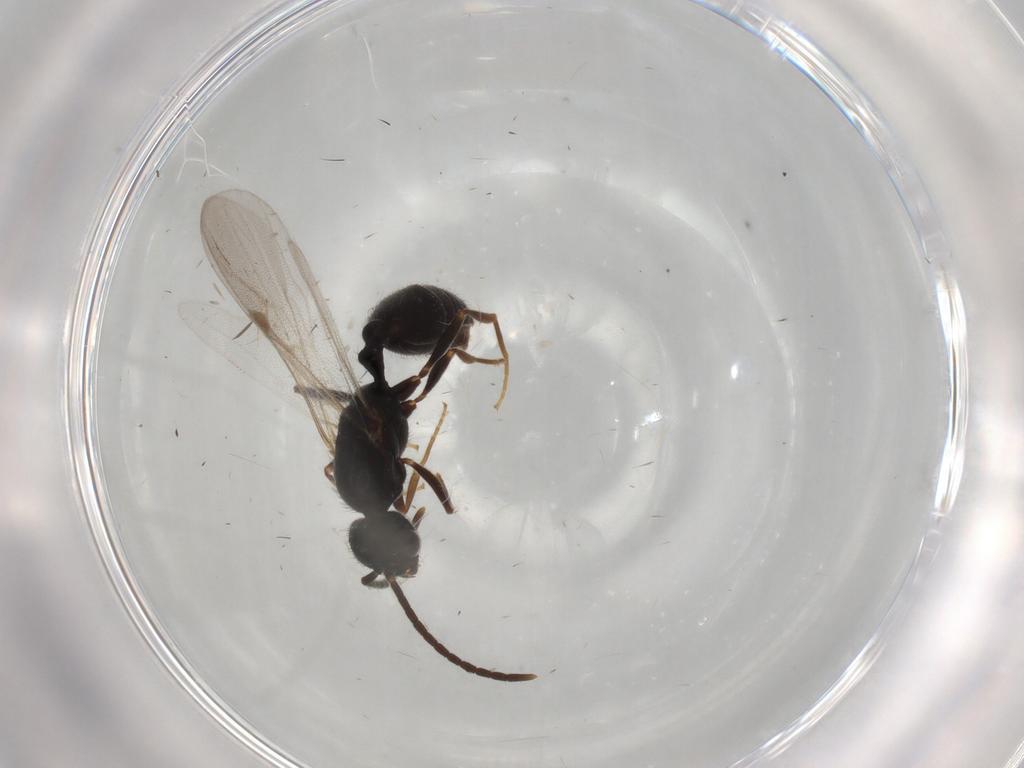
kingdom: Animalia
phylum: Arthropoda
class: Insecta
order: Hymenoptera
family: Formicidae
